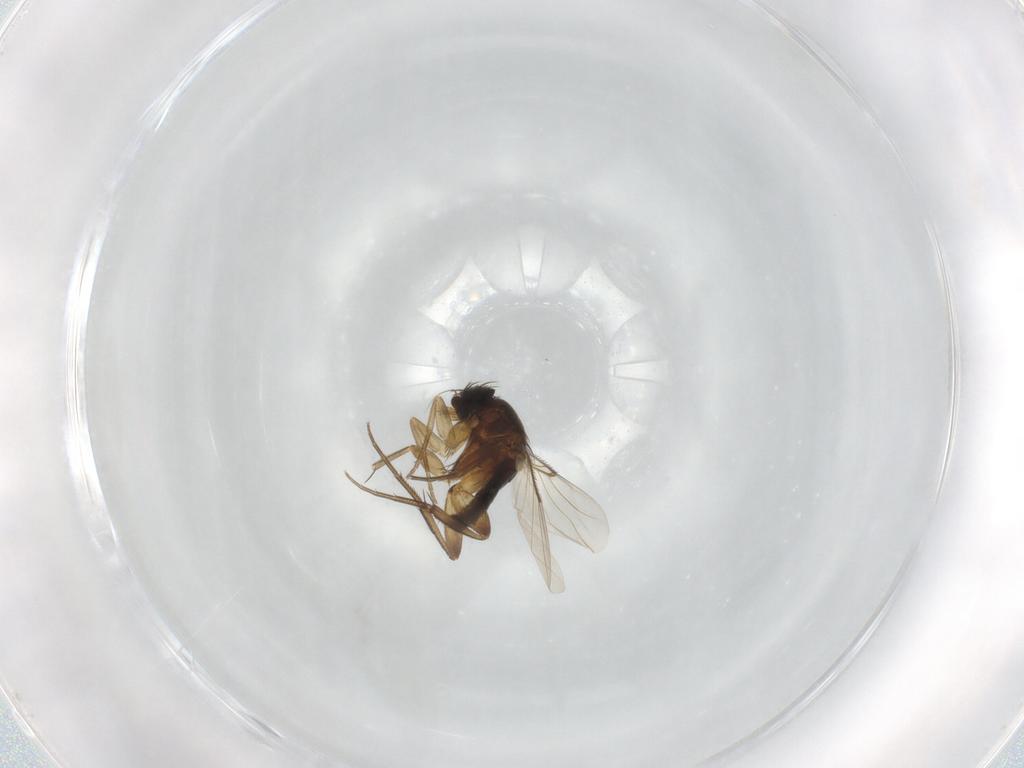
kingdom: Animalia
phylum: Arthropoda
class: Insecta
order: Diptera
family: Phoridae
